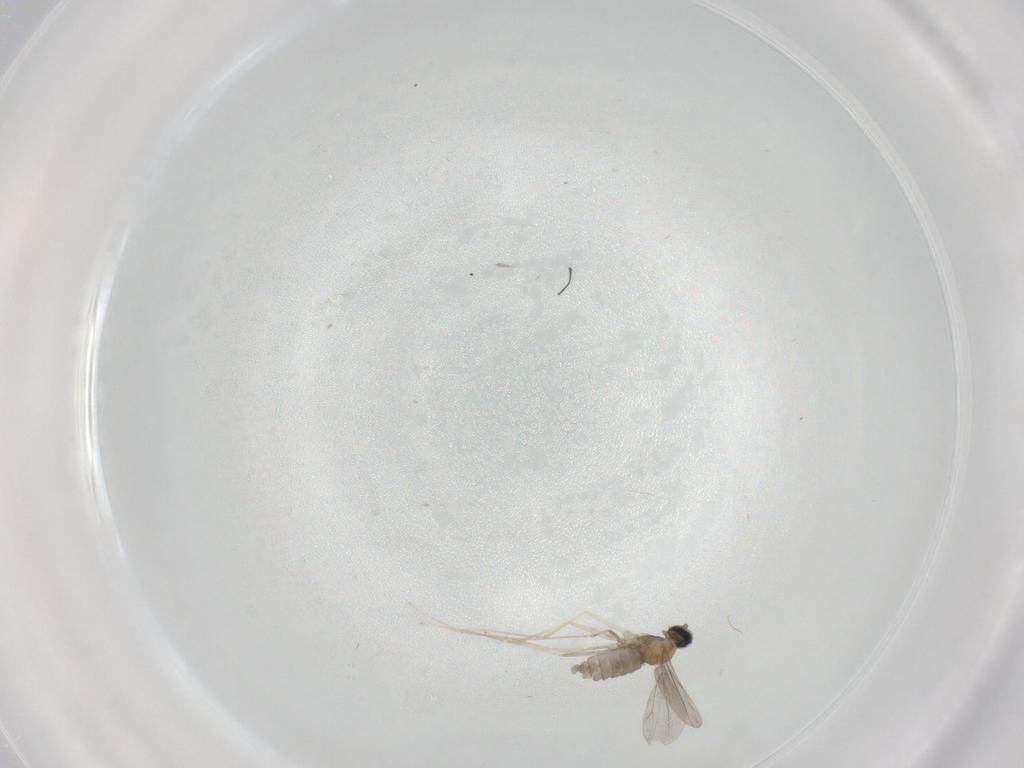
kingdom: Animalia
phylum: Arthropoda
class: Insecta
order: Diptera
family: Cecidomyiidae
